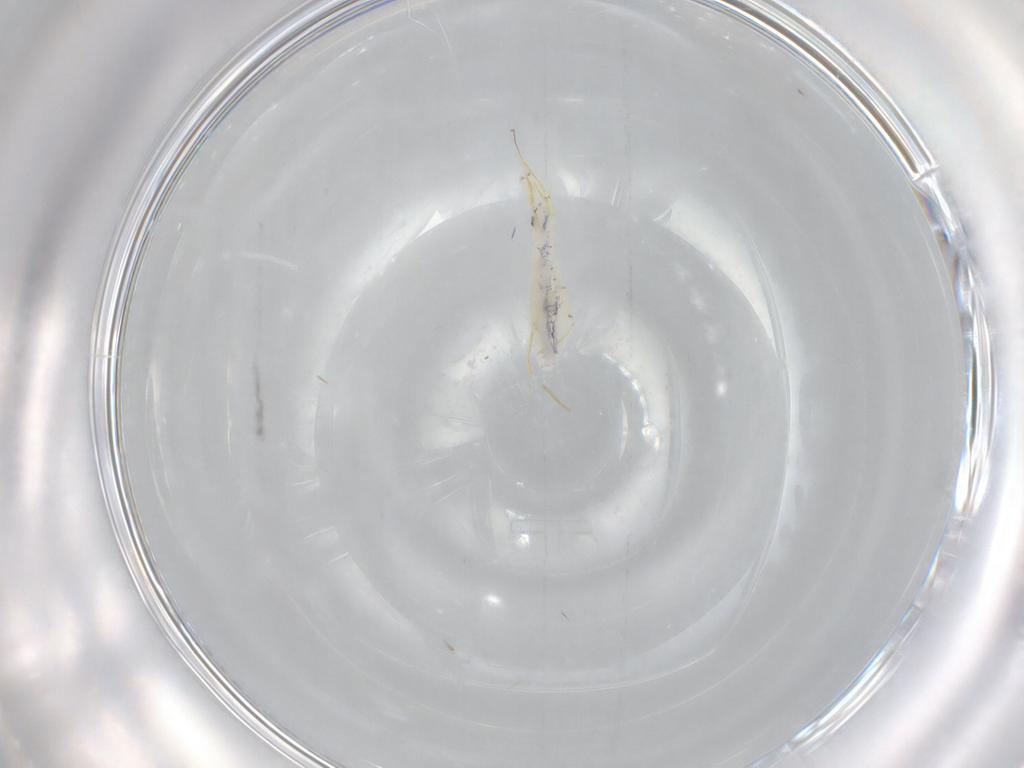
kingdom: Animalia
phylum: Arthropoda
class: Collembola
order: Entomobryomorpha
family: Entomobryidae
